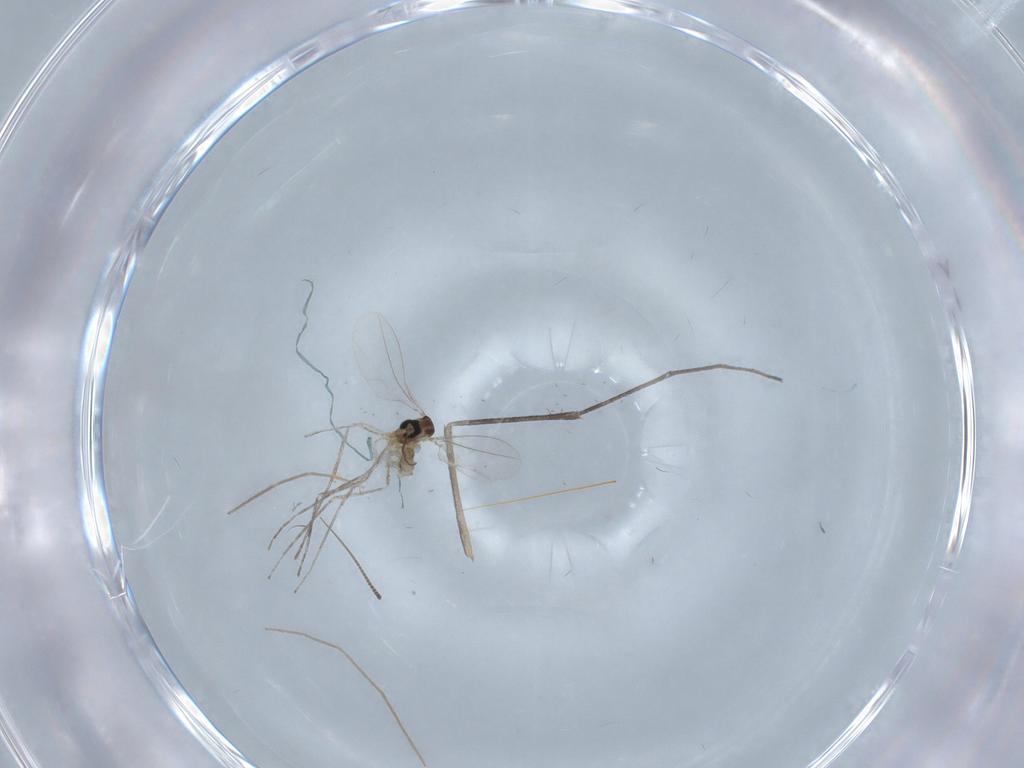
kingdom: Animalia
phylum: Arthropoda
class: Insecta
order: Diptera
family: Cecidomyiidae
